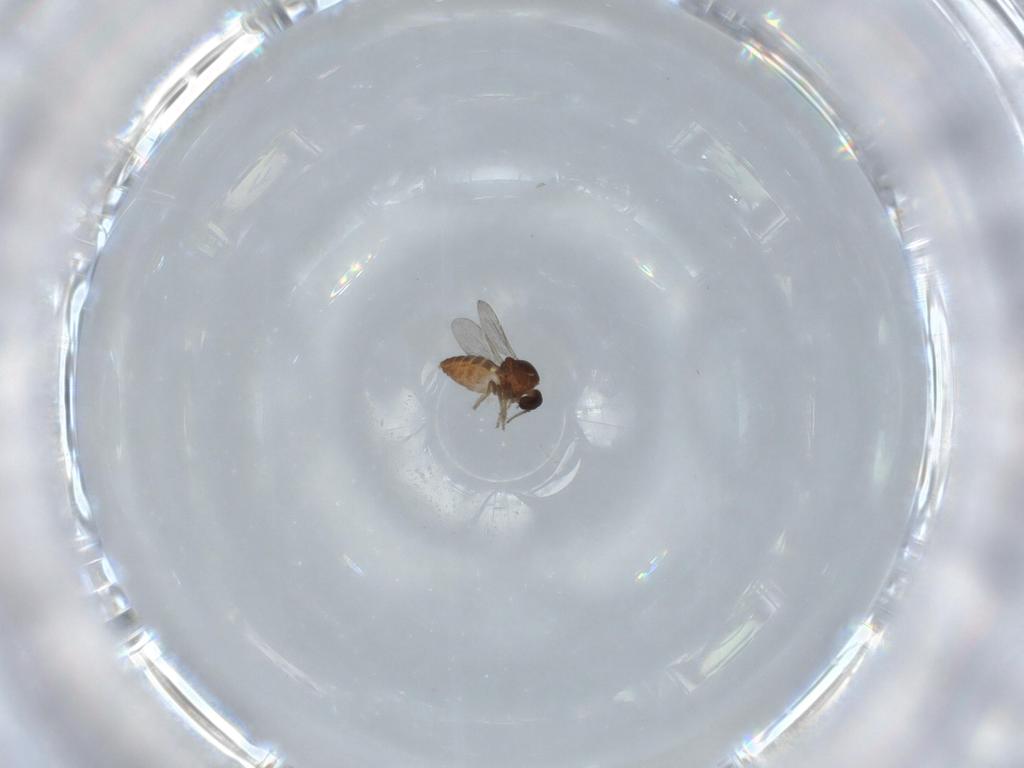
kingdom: Animalia
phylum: Arthropoda
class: Insecta
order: Diptera
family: Ceratopogonidae
